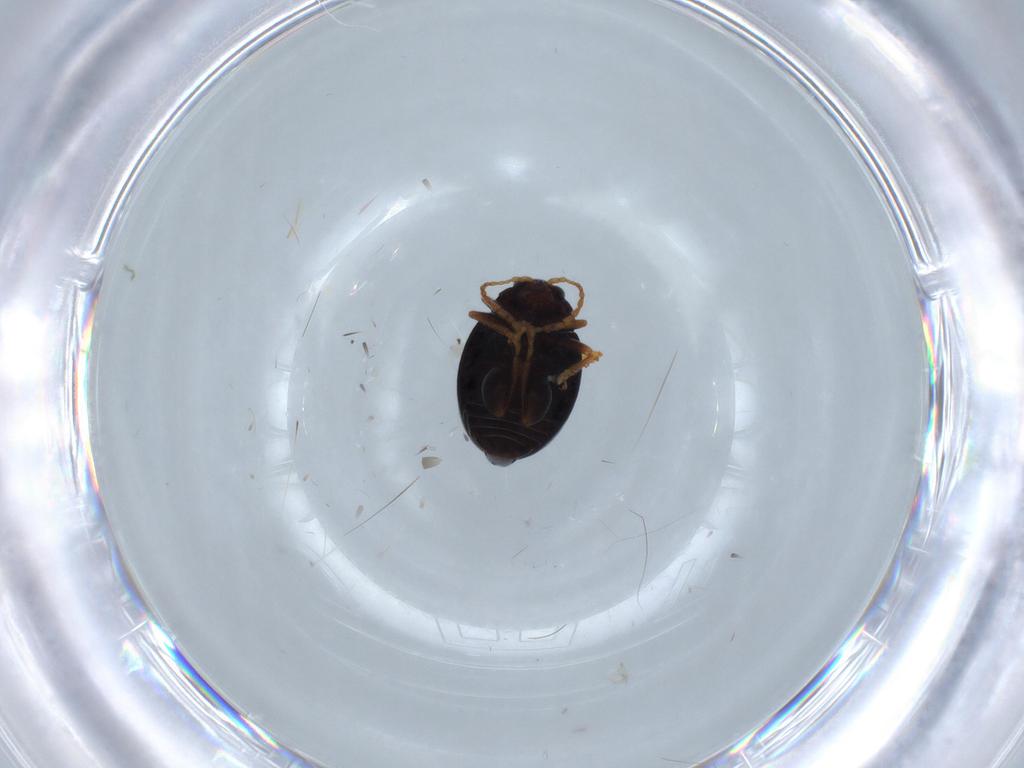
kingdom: Animalia
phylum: Arthropoda
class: Insecta
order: Coleoptera
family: Chrysomelidae
